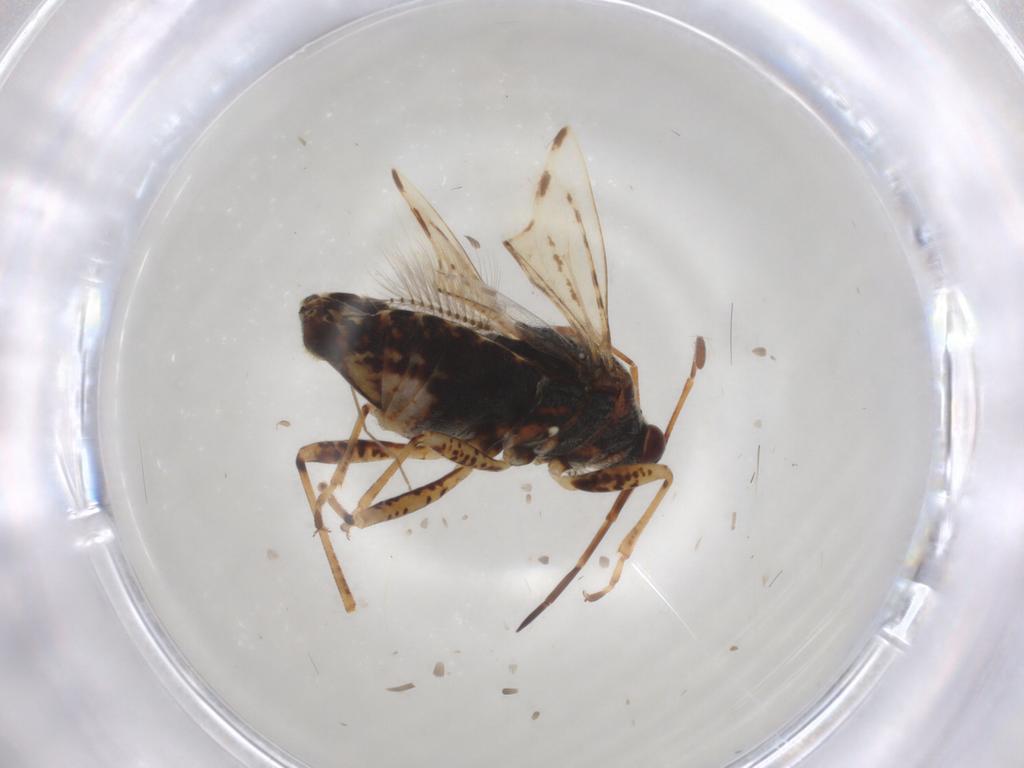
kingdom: Animalia
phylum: Arthropoda
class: Insecta
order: Hemiptera
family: Lygaeidae
